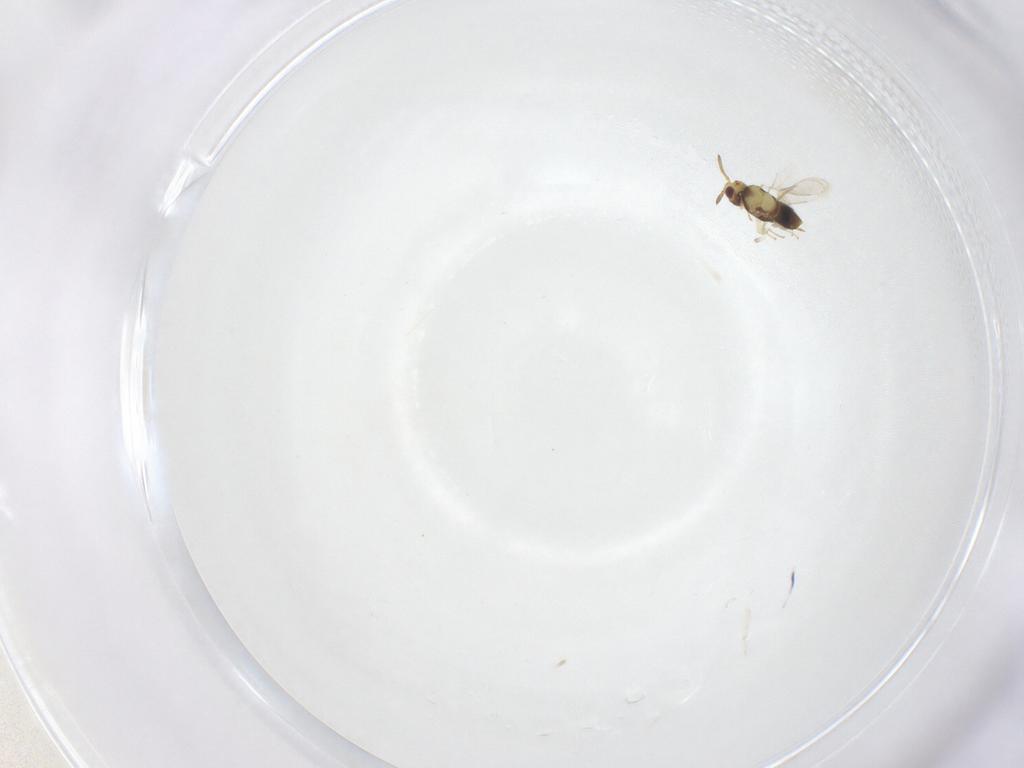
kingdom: Animalia
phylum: Arthropoda
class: Insecta
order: Hymenoptera
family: Aphelinidae
